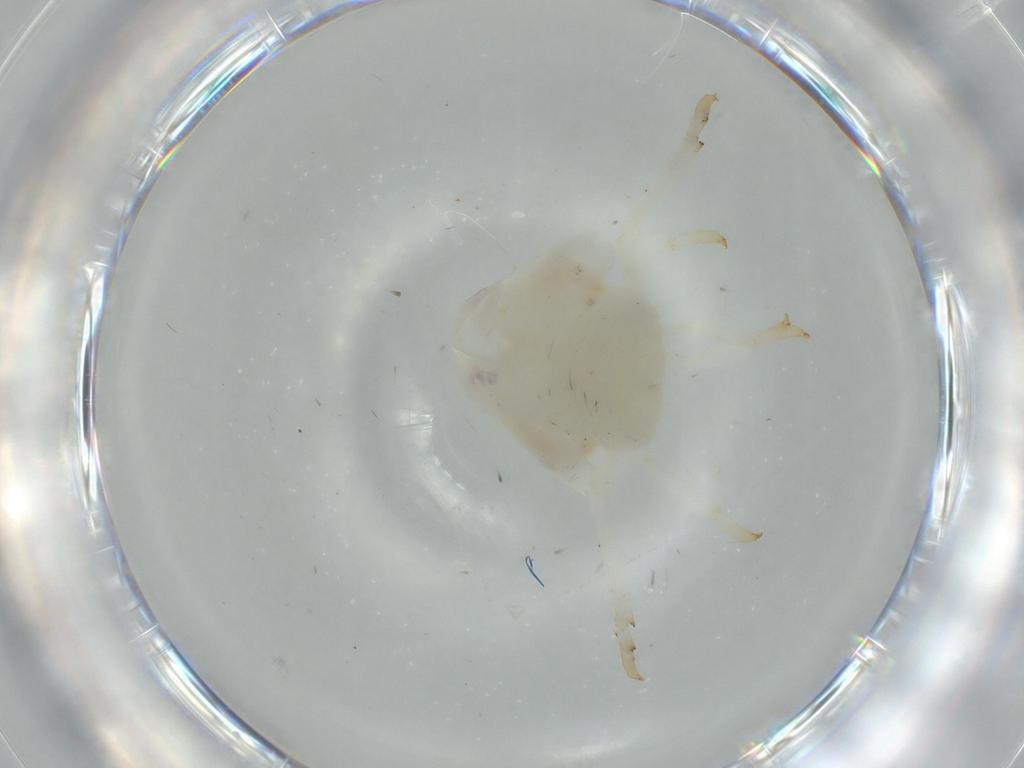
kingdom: Animalia
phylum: Arthropoda
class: Insecta
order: Hemiptera
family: Flatidae
